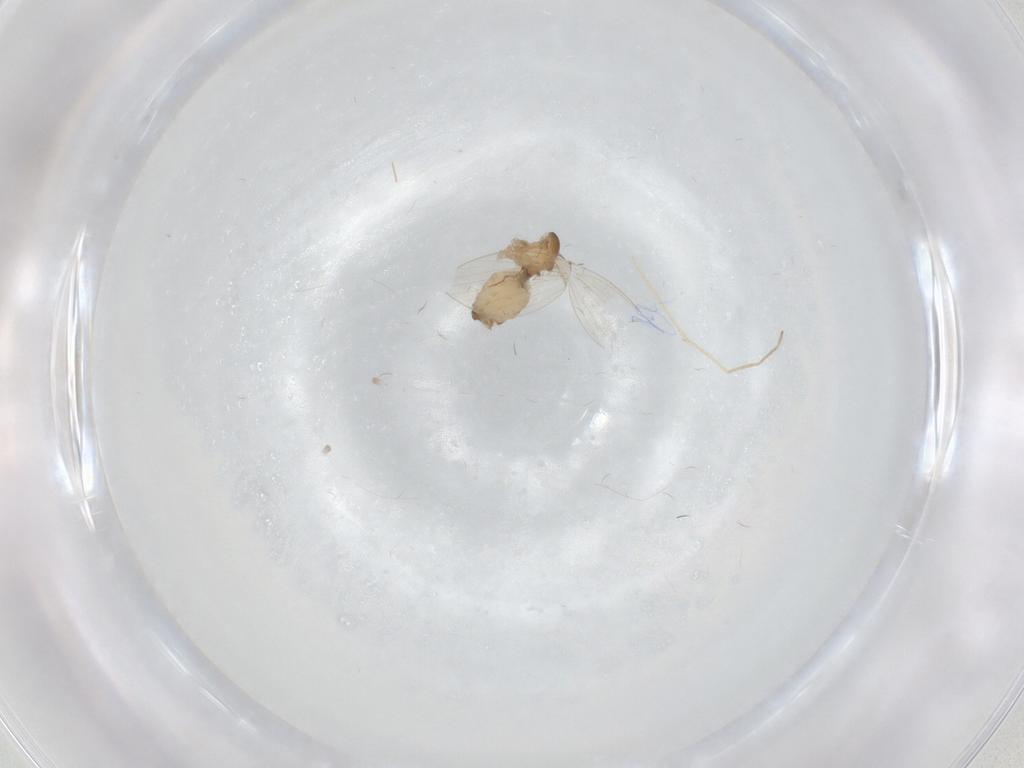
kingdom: Animalia
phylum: Arthropoda
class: Insecta
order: Diptera
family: Psychodidae
